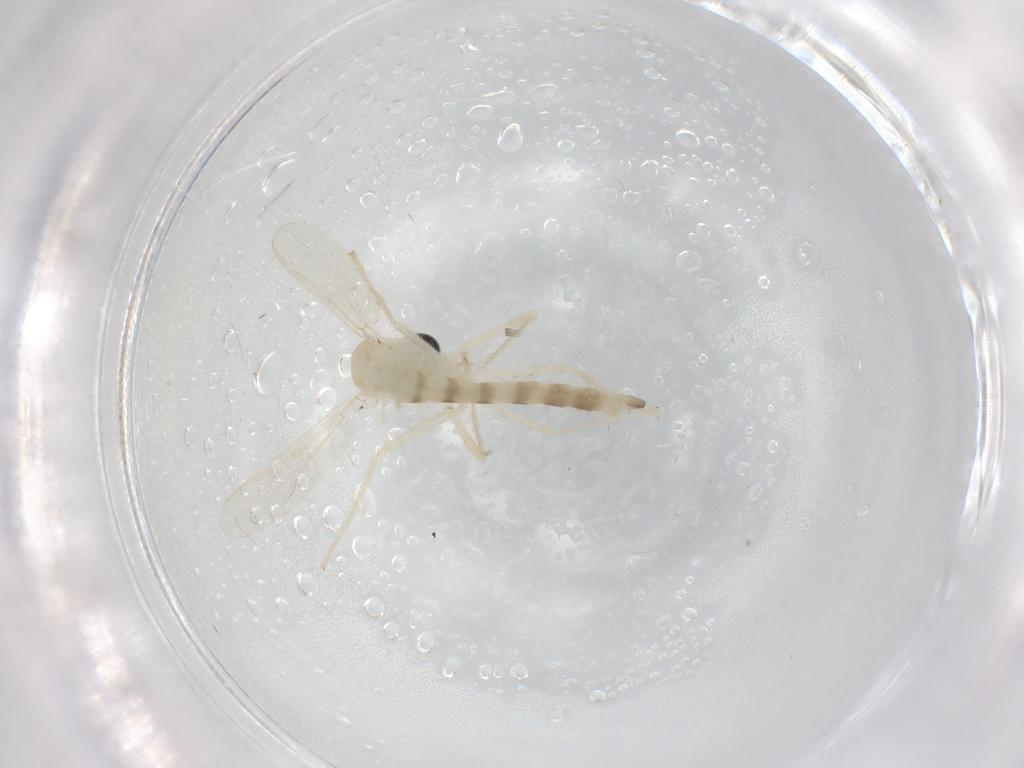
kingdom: Animalia
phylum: Arthropoda
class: Insecta
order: Diptera
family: Chironomidae
